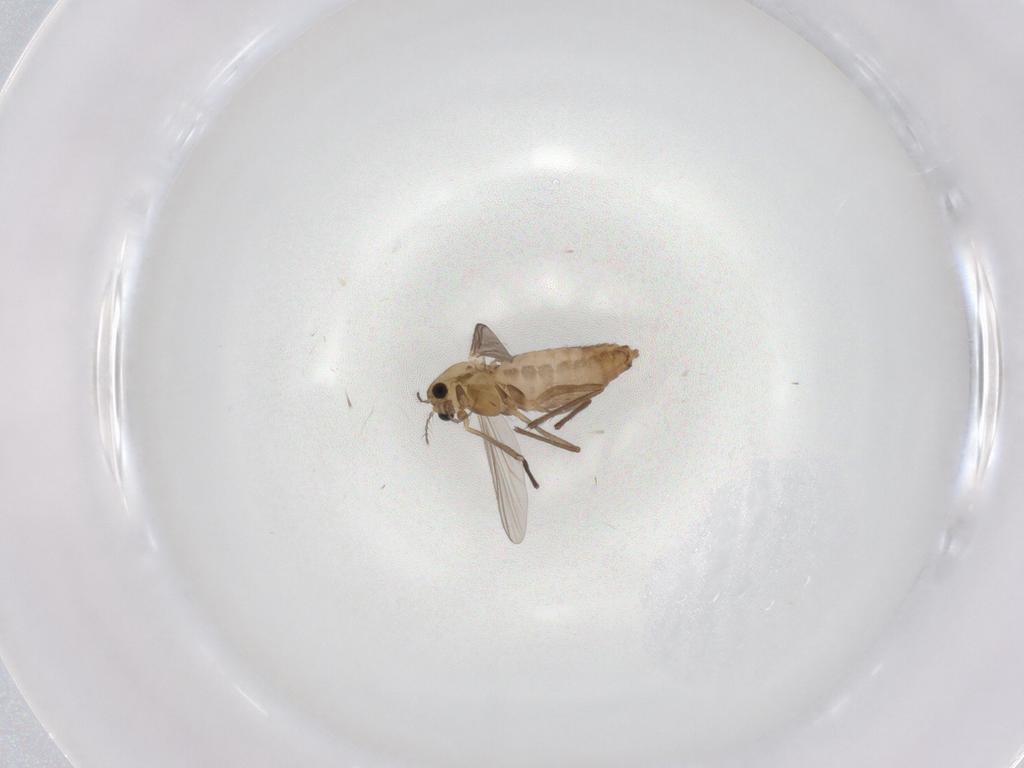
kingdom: Animalia
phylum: Arthropoda
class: Insecta
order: Diptera
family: Chironomidae
